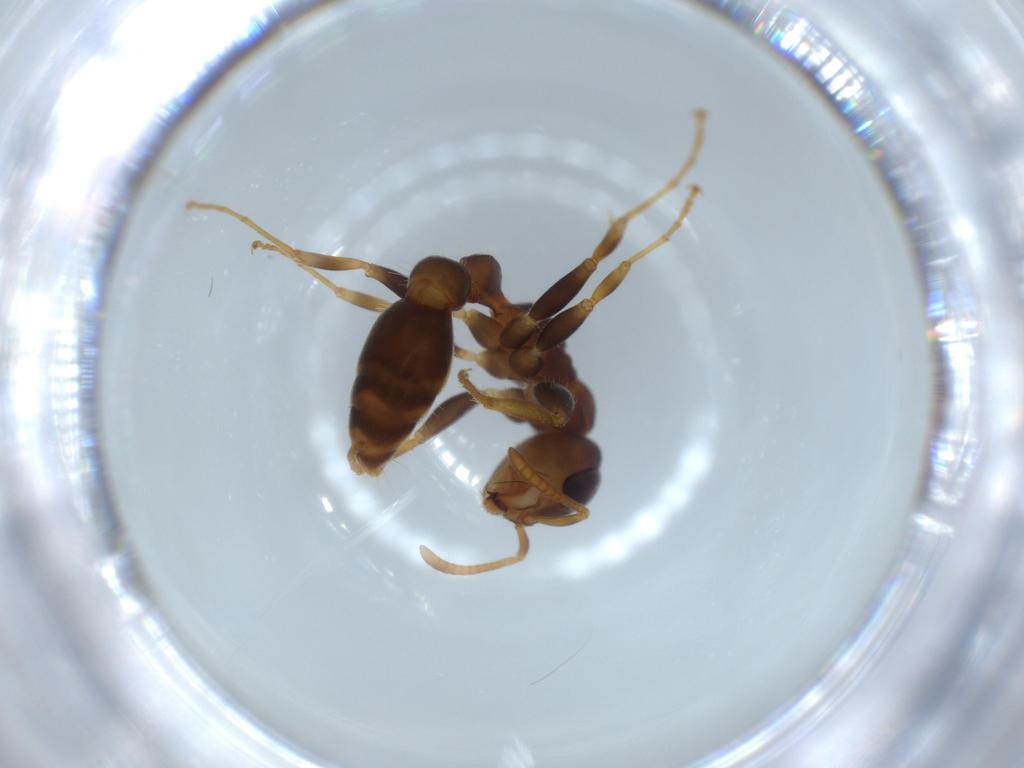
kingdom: Animalia
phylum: Arthropoda
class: Insecta
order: Hymenoptera
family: Formicidae
